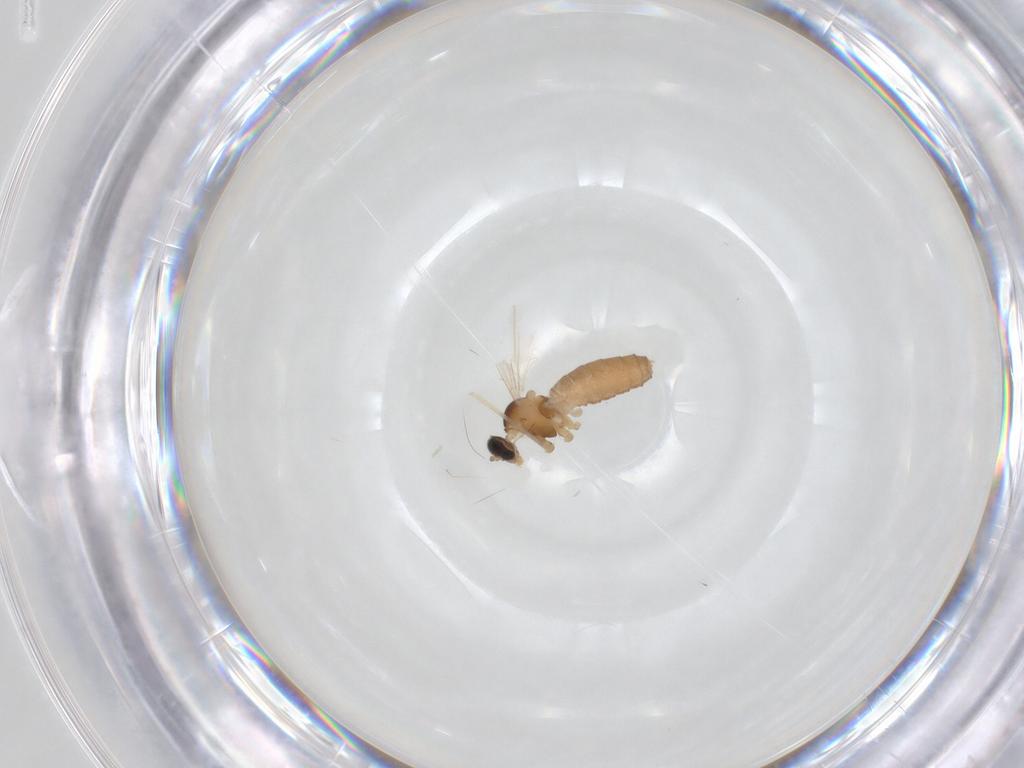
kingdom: Animalia
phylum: Arthropoda
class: Insecta
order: Diptera
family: Cecidomyiidae
